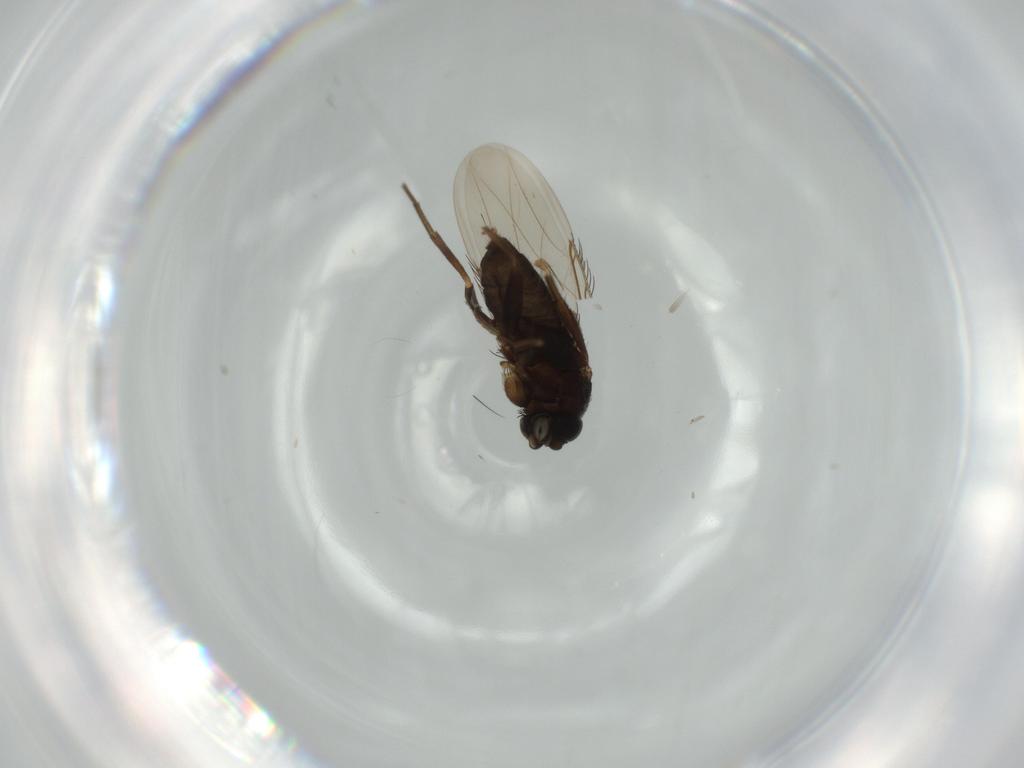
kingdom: Animalia
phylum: Arthropoda
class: Insecta
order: Diptera
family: Phoridae
